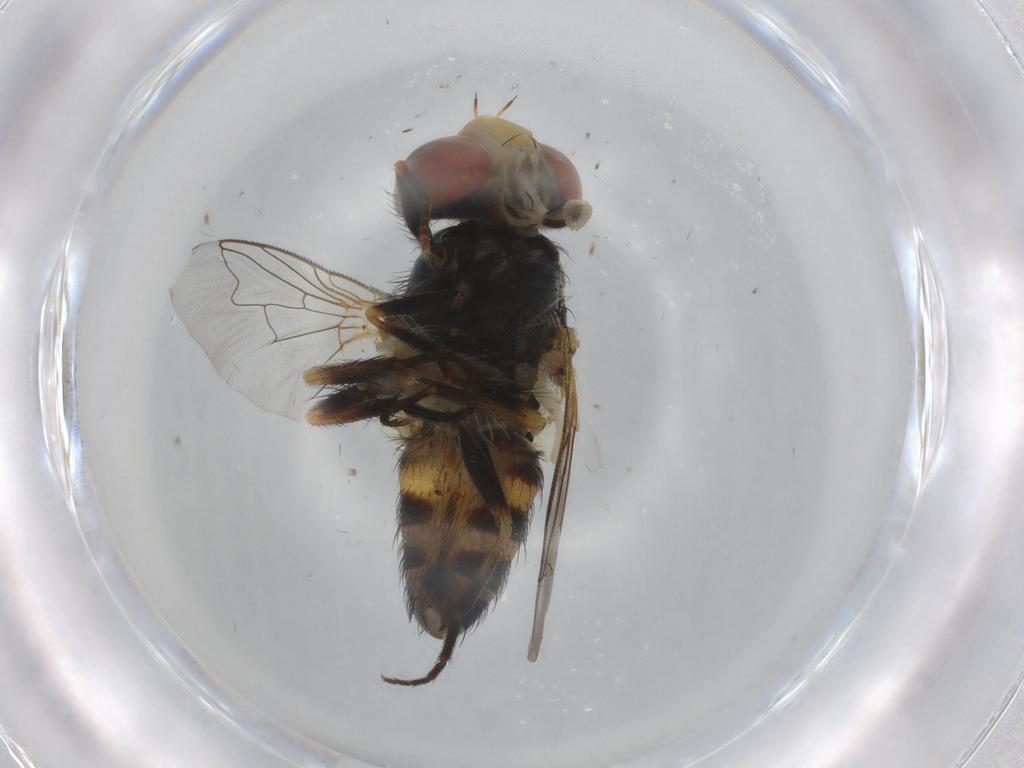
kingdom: Animalia
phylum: Arthropoda
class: Insecta
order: Diptera
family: Sarcophagidae
